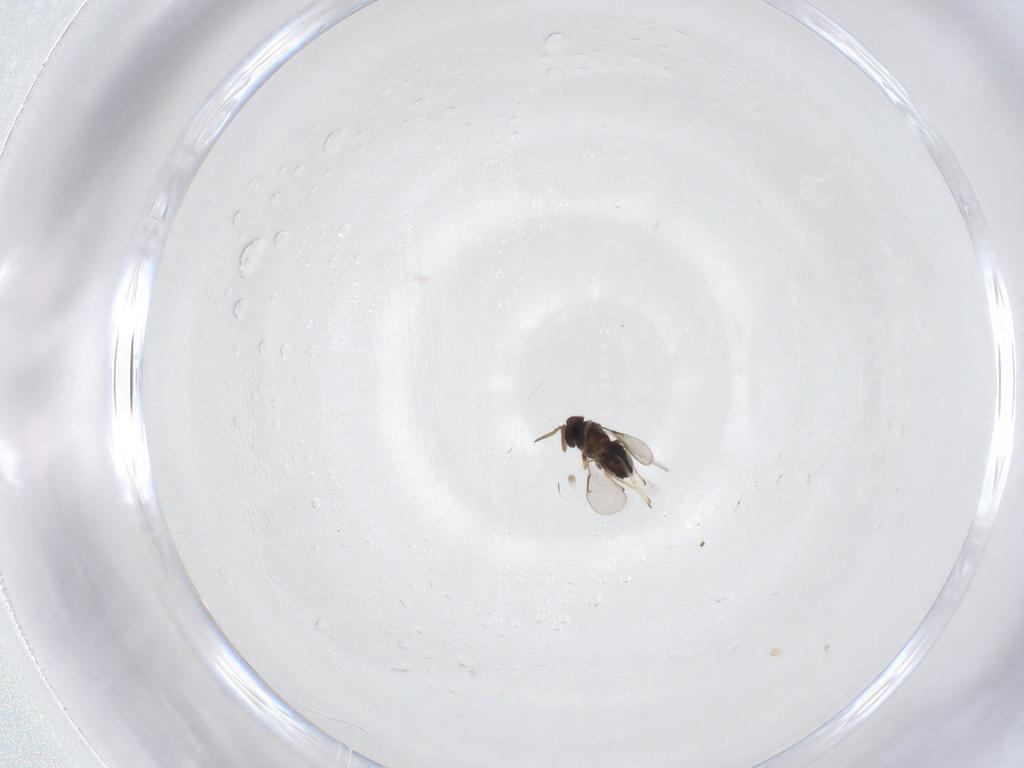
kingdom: Animalia
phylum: Arthropoda
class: Insecta
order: Hymenoptera
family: Aphelinidae
